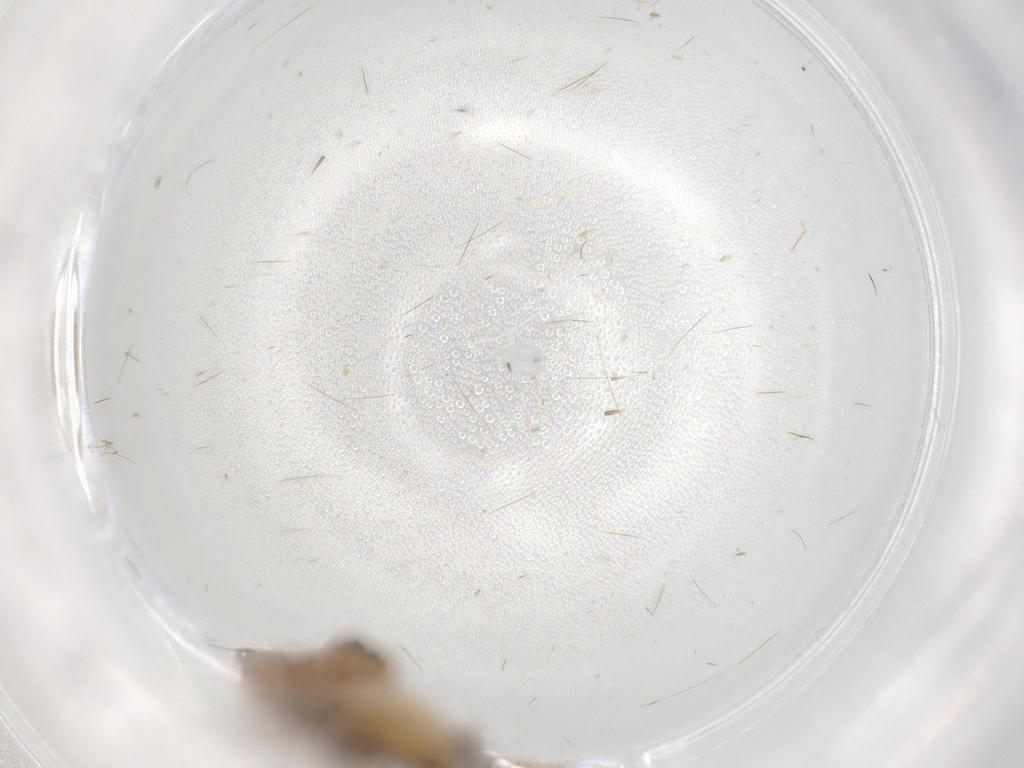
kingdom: Animalia
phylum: Arthropoda
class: Insecta
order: Lepidoptera
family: Tineidae
